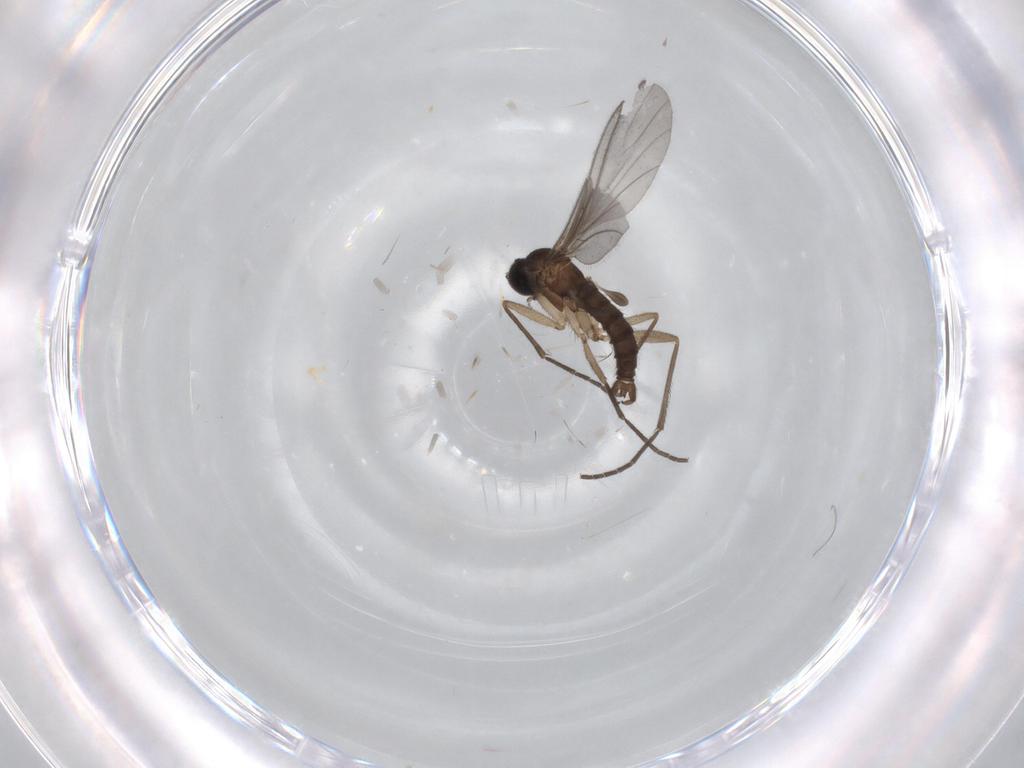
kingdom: Animalia
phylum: Arthropoda
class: Insecta
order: Diptera
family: Sciaridae
